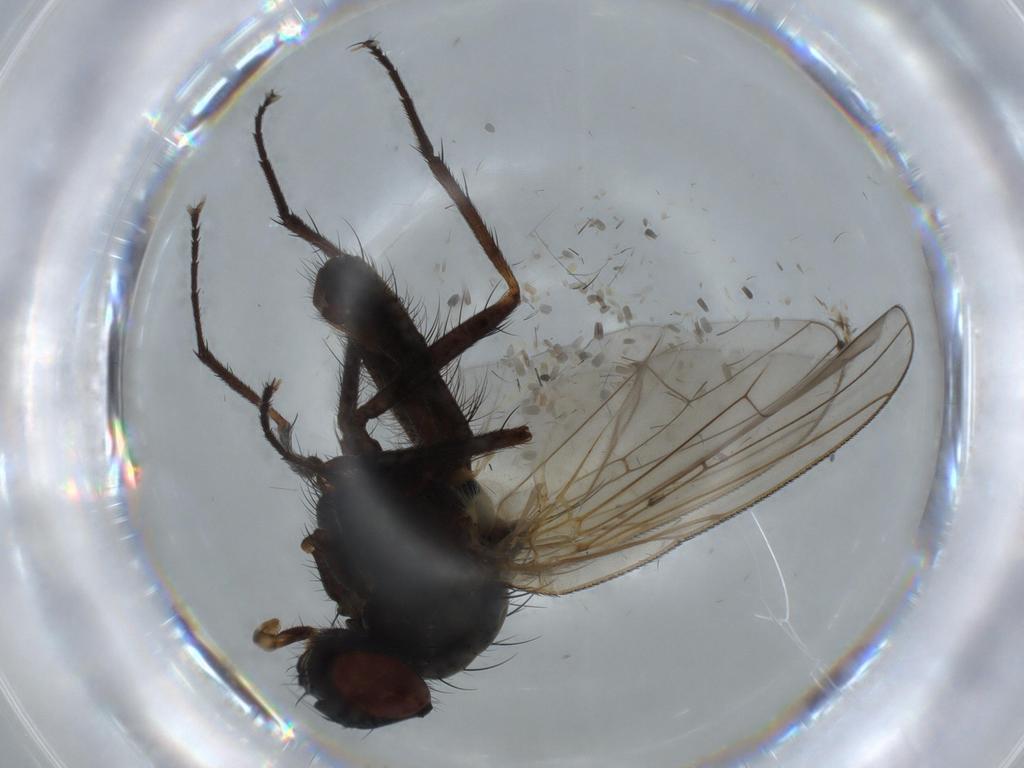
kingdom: Animalia
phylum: Arthropoda
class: Insecta
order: Diptera
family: Anthomyiidae
